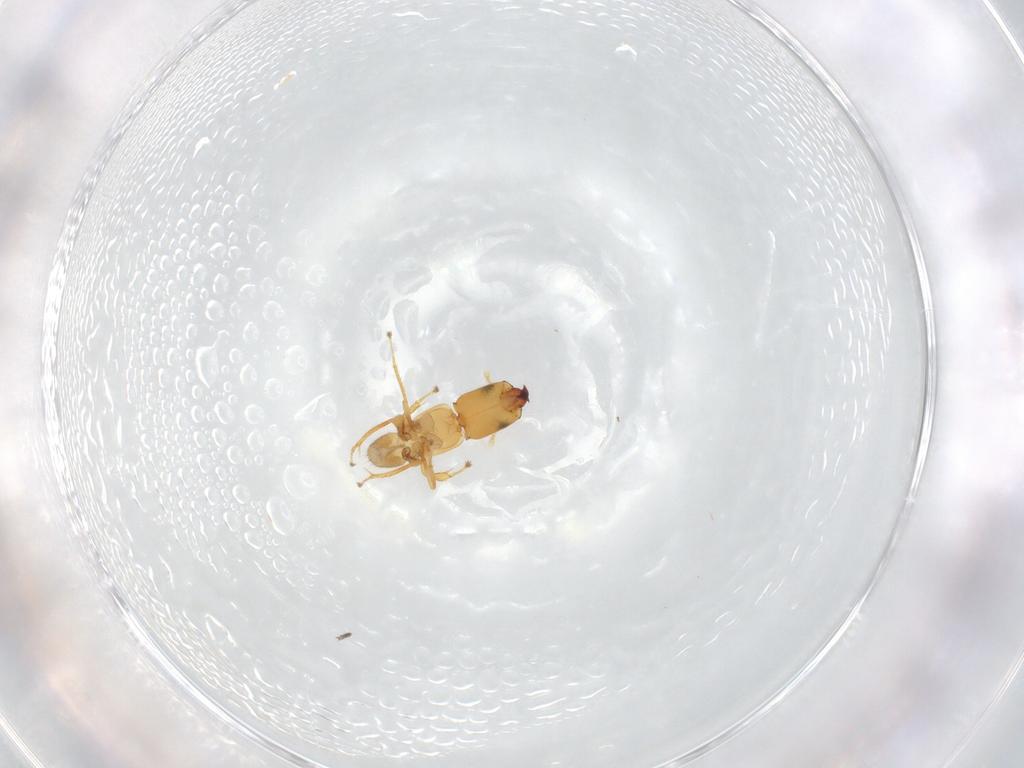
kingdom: Animalia
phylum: Arthropoda
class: Insecta
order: Hymenoptera
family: Pteromalidae
